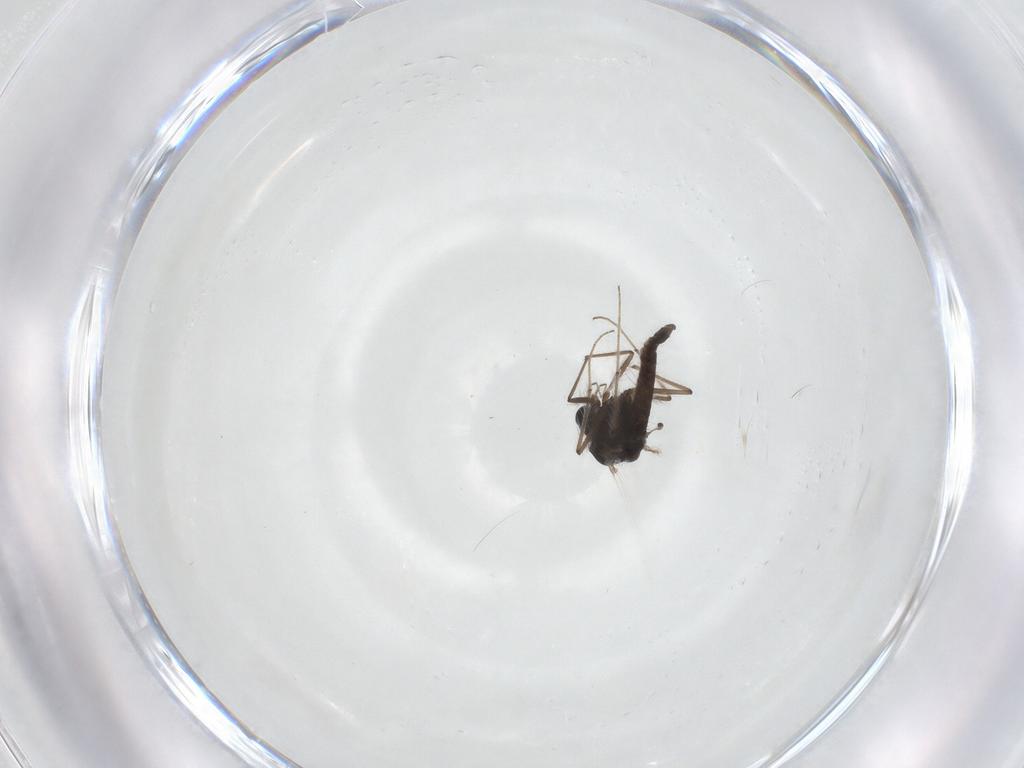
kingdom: Animalia
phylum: Arthropoda
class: Insecta
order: Diptera
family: Chironomidae
